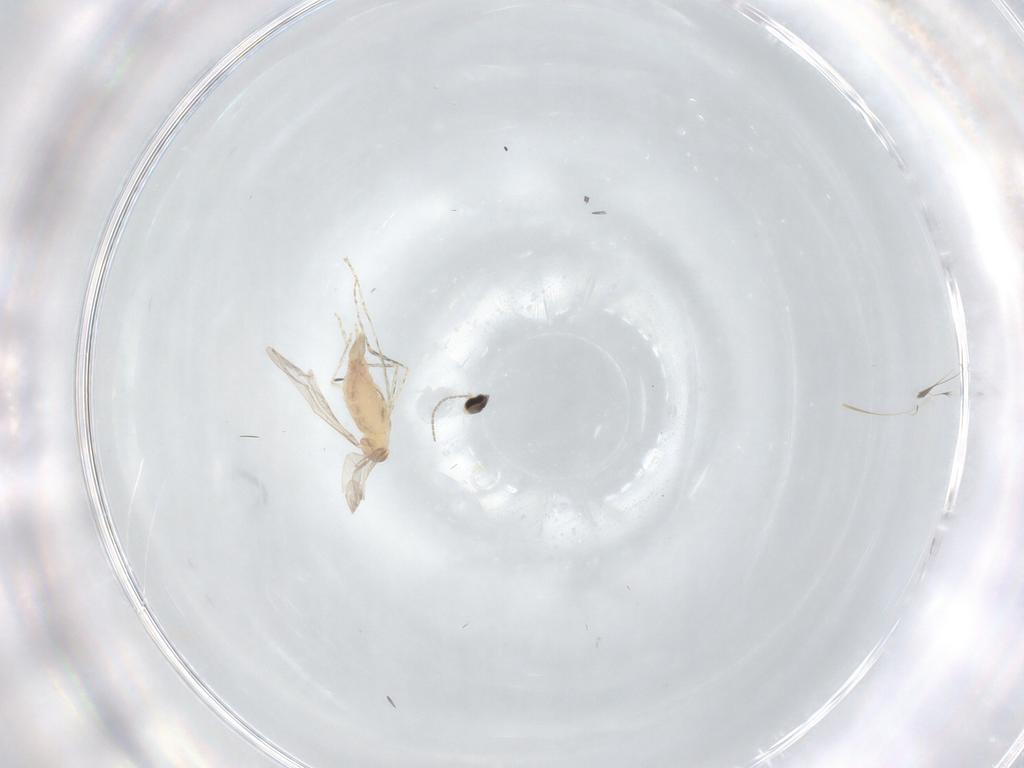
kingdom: Animalia
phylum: Arthropoda
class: Insecta
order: Diptera
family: Cecidomyiidae
